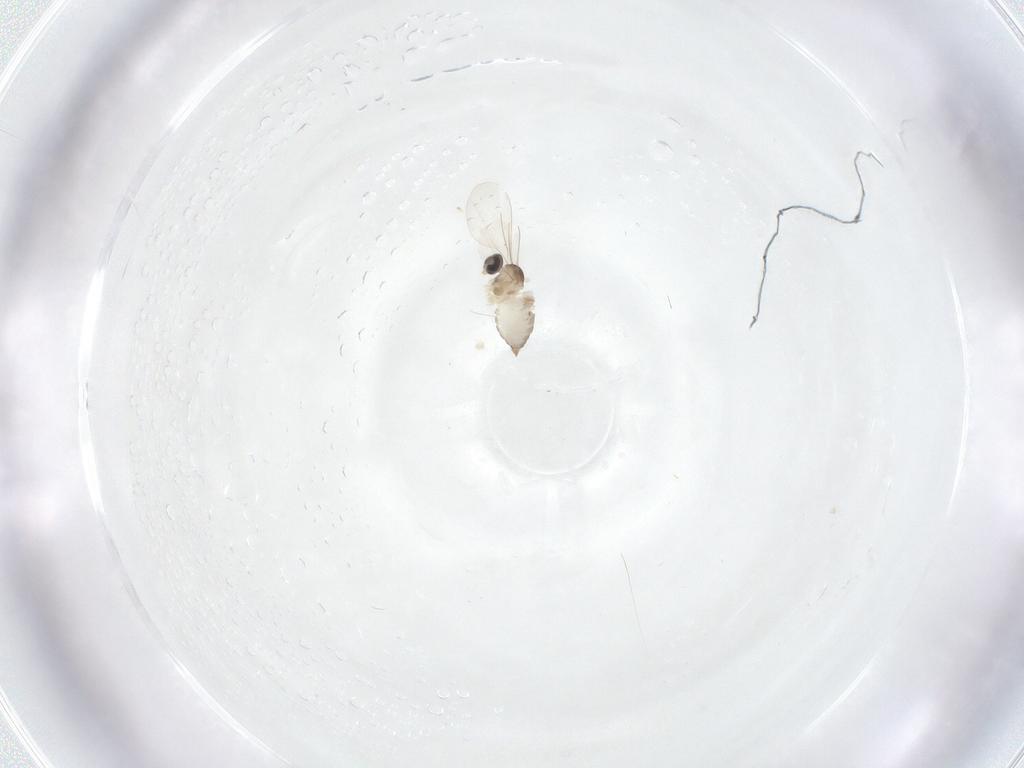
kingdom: Animalia
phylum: Arthropoda
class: Insecta
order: Diptera
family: Cecidomyiidae
